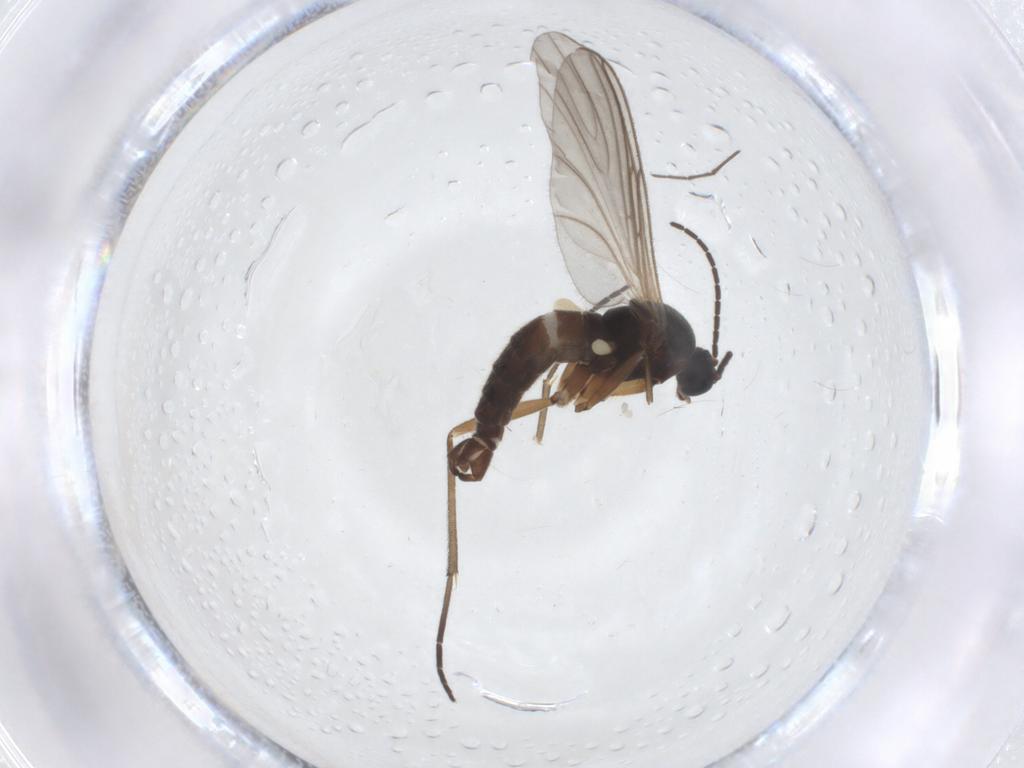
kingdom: Animalia
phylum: Arthropoda
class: Insecta
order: Diptera
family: Sciaridae
